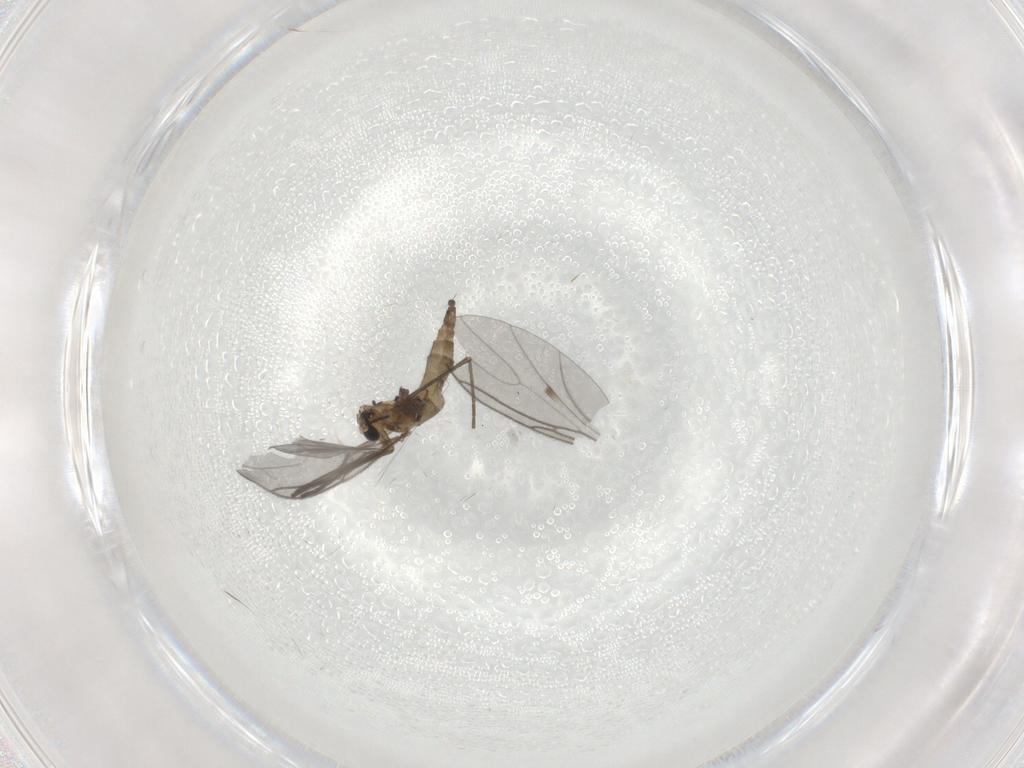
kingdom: Animalia
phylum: Arthropoda
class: Insecta
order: Diptera
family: Sciaridae
